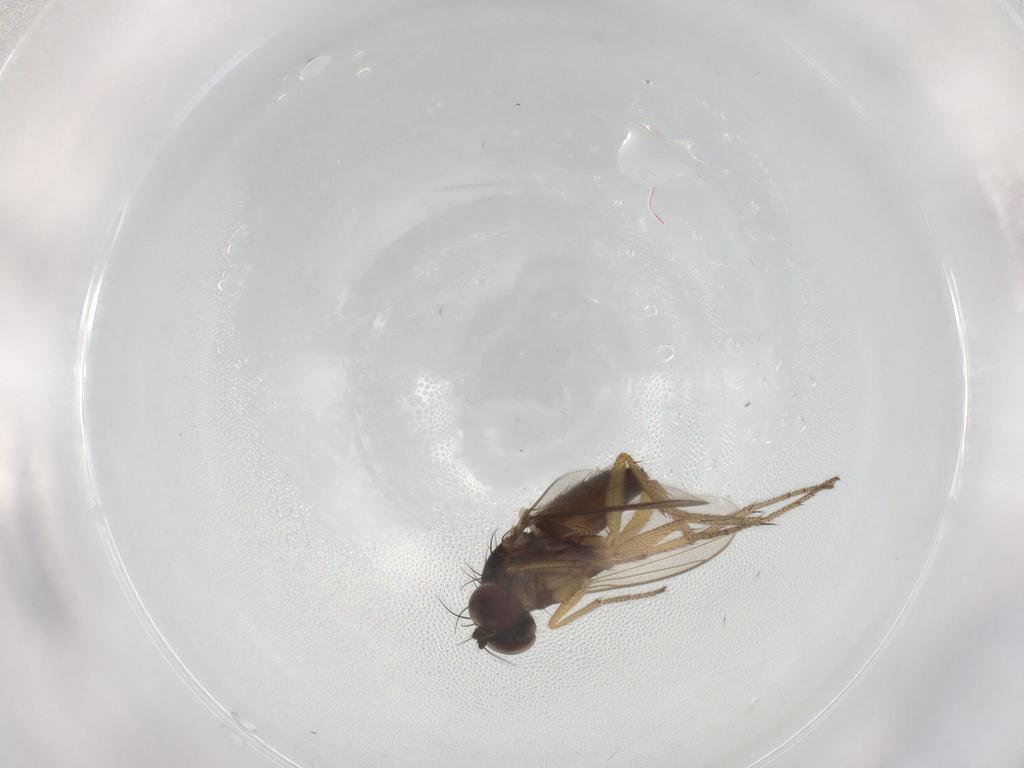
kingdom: Animalia
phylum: Arthropoda
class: Insecta
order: Diptera
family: Dolichopodidae
